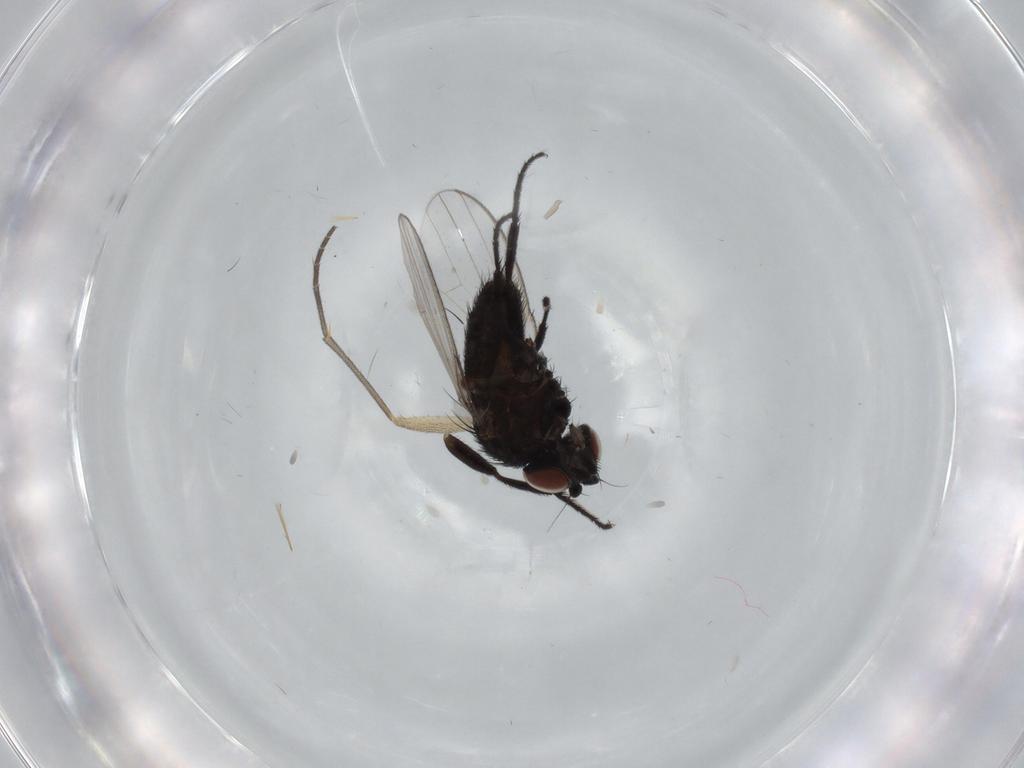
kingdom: Animalia
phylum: Arthropoda
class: Insecta
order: Diptera
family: Sciaridae
